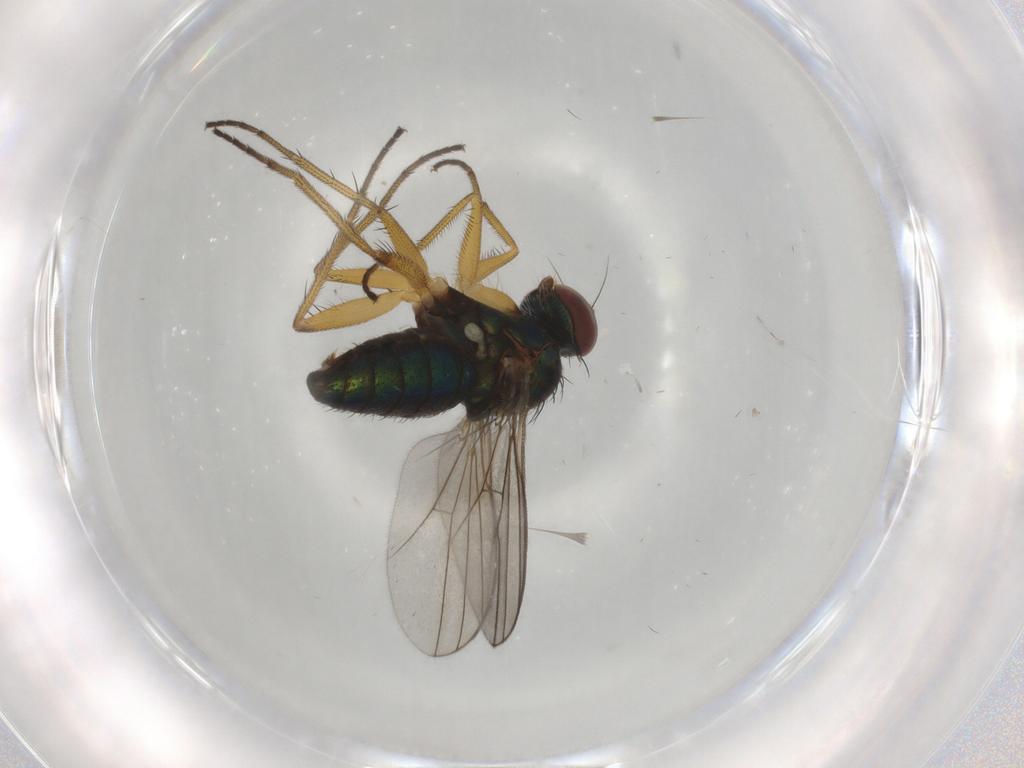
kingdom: Animalia
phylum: Arthropoda
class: Insecta
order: Diptera
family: Dolichopodidae
